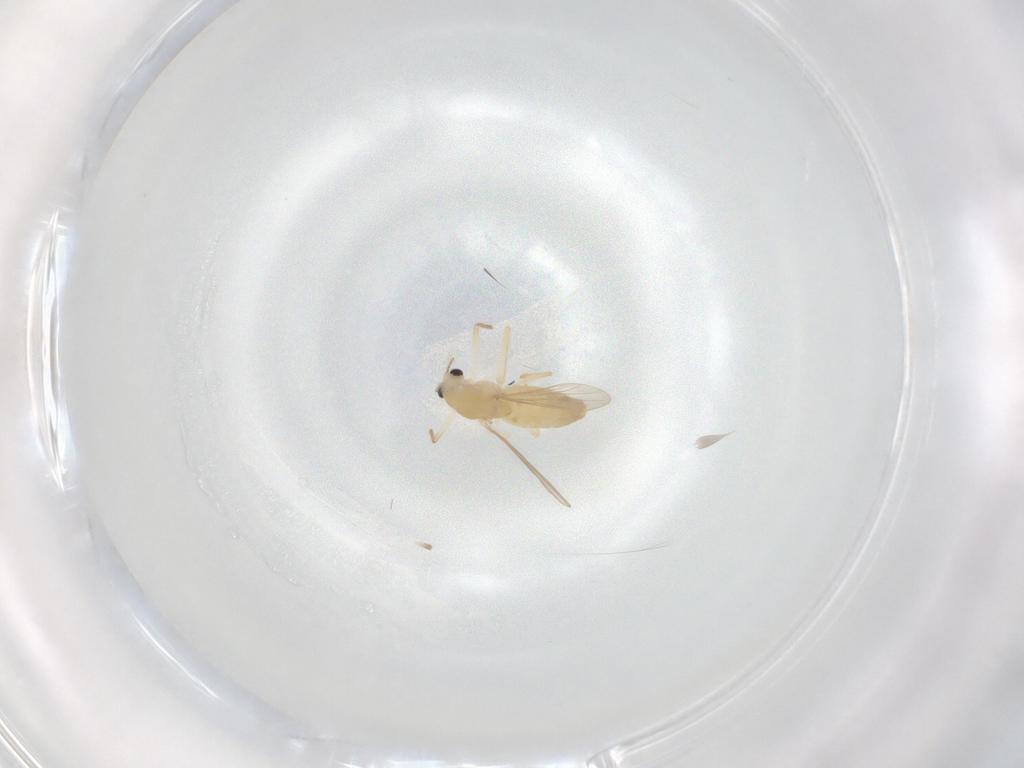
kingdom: Animalia
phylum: Arthropoda
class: Insecta
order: Diptera
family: Chironomidae
